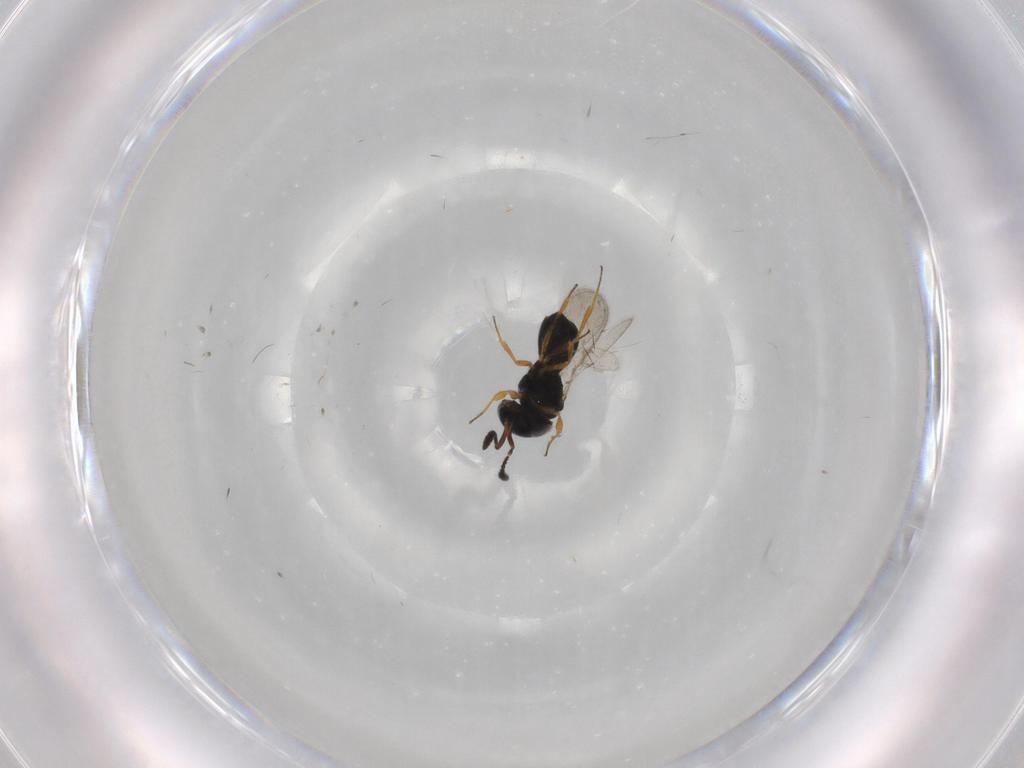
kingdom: Animalia
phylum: Arthropoda
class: Insecta
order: Hymenoptera
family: Scelionidae
